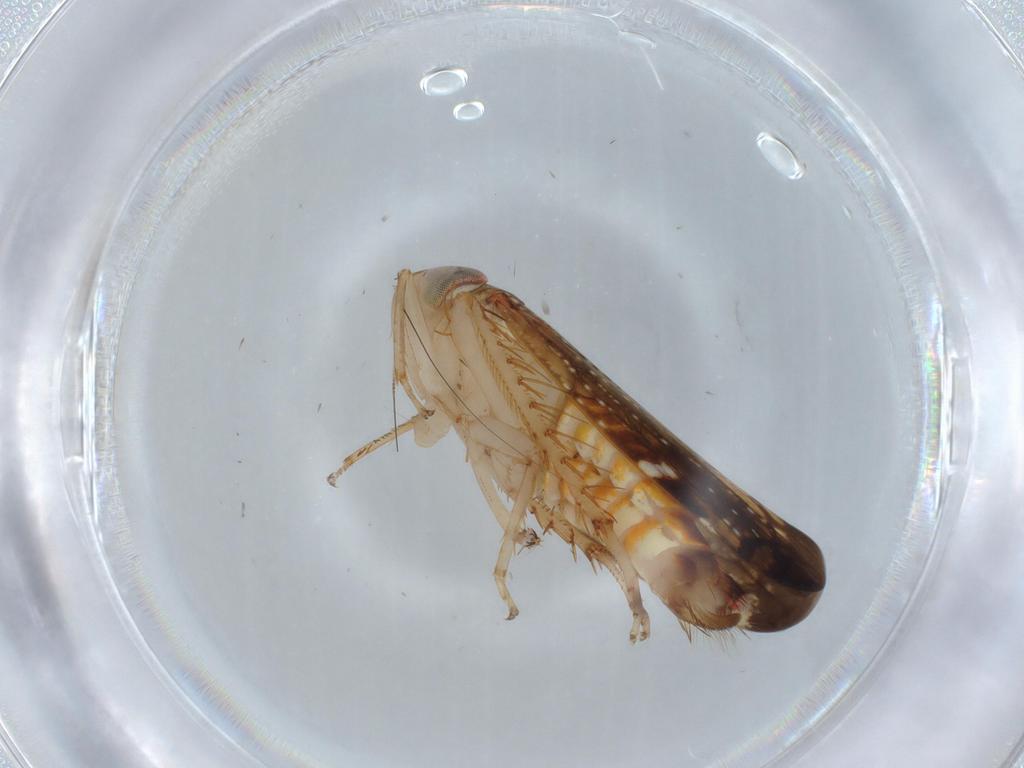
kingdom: Animalia
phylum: Arthropoda
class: Insecta
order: Hemiptera
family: Cicadellidae
